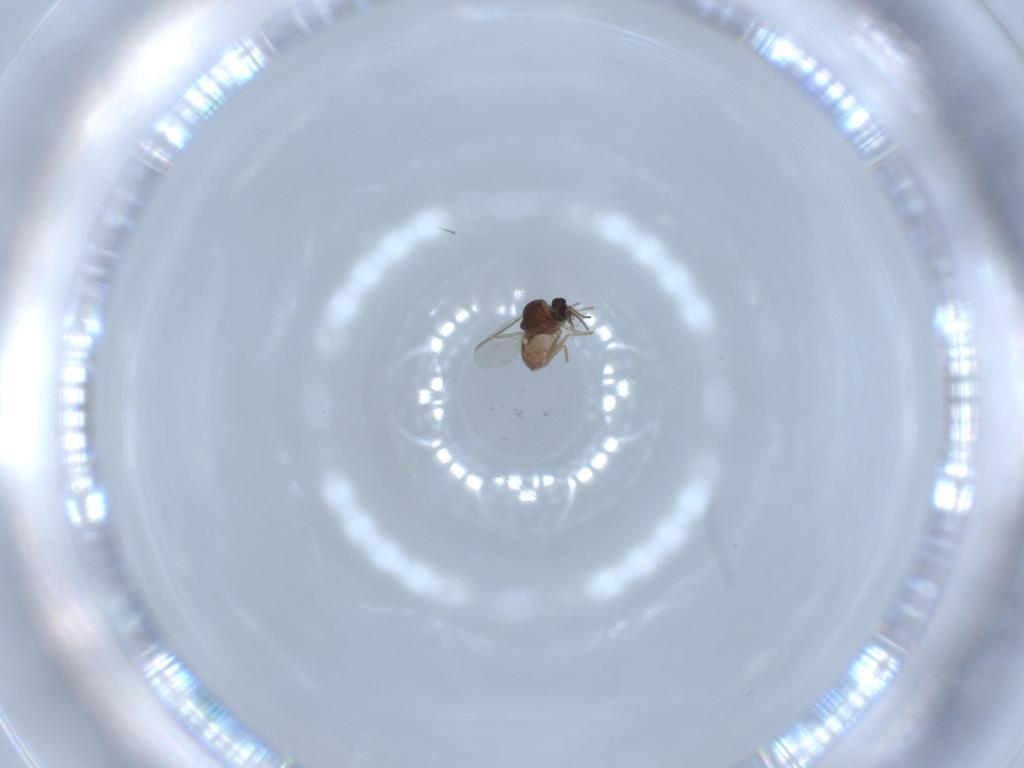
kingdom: Animalia
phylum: Arthropoda
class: Insecta
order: Diptera
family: Ceratopogonidae
